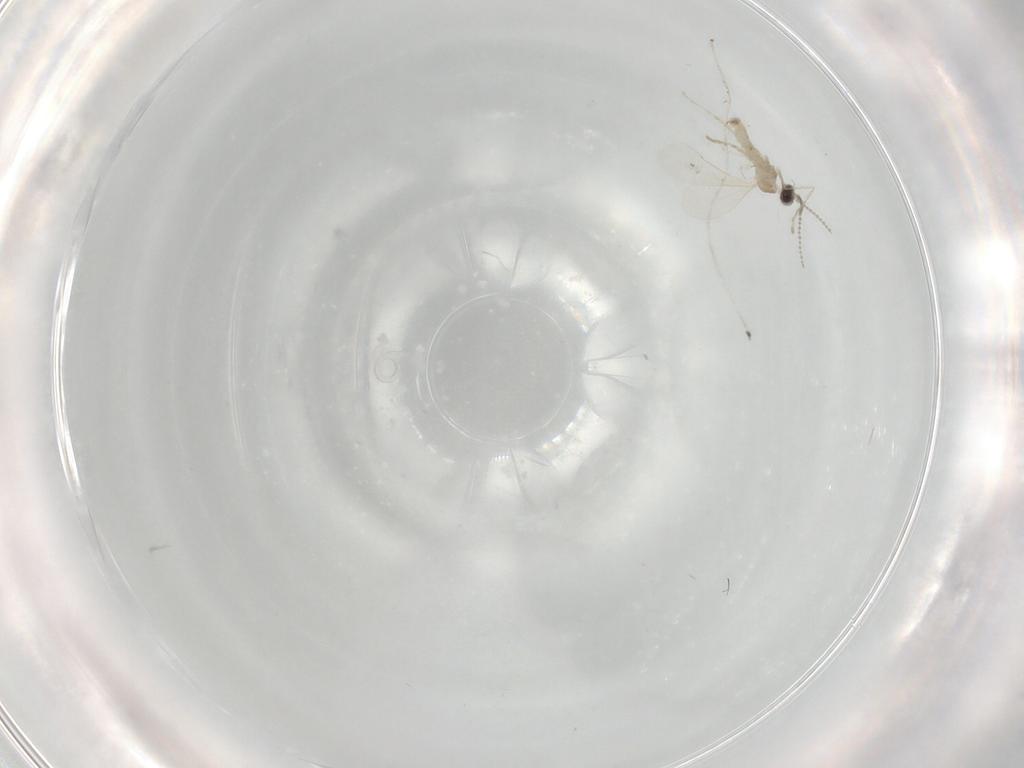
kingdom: Animalia
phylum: Arthropoda
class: Insecta
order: Diptera
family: Cecidomyiidae
